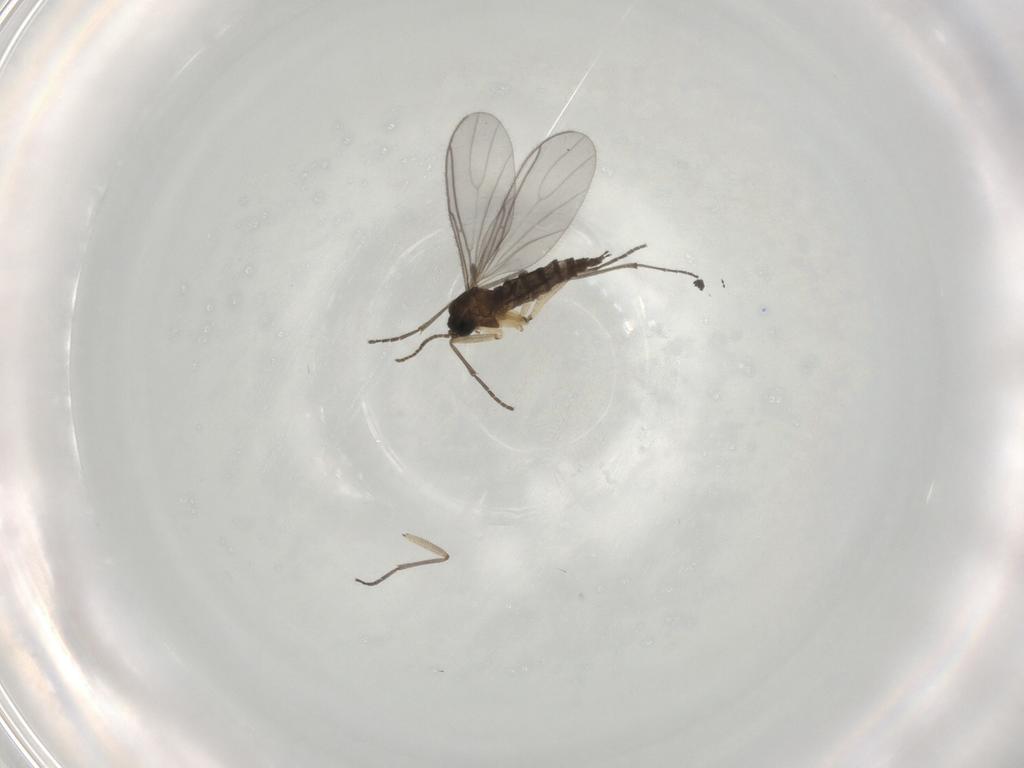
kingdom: Animalia
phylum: Arthropoda
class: Insecta
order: Diptera
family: Sciaridae
